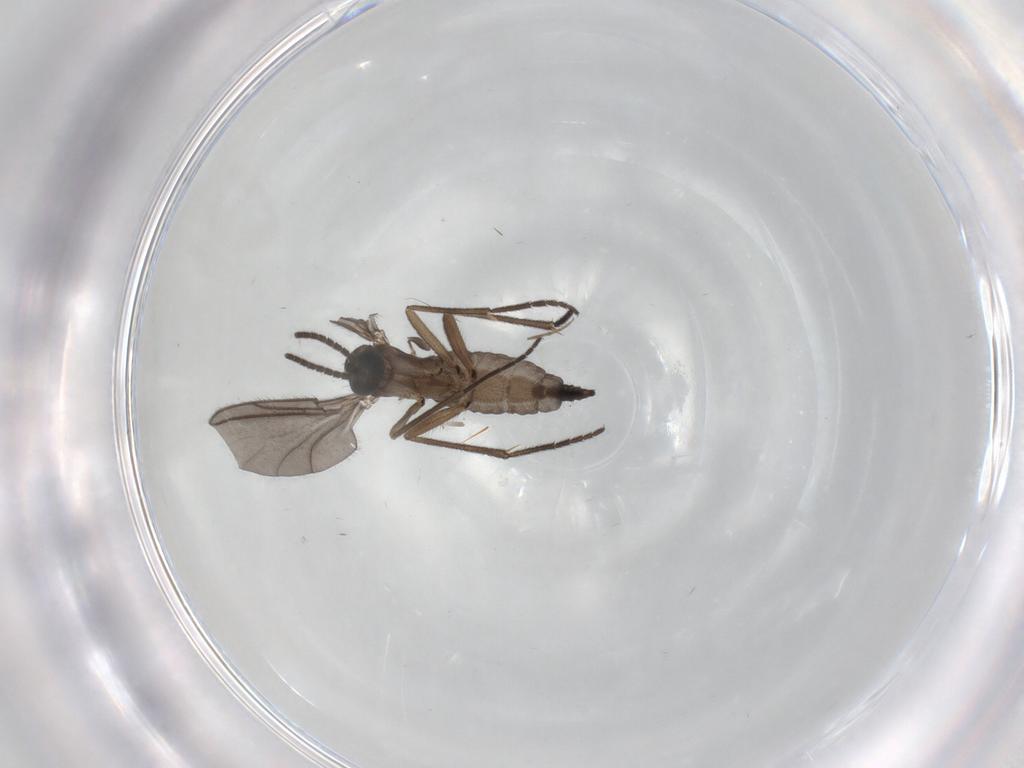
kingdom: Animalia
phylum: Arthropoda
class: Insecta
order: Diptera
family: Sciaridae
